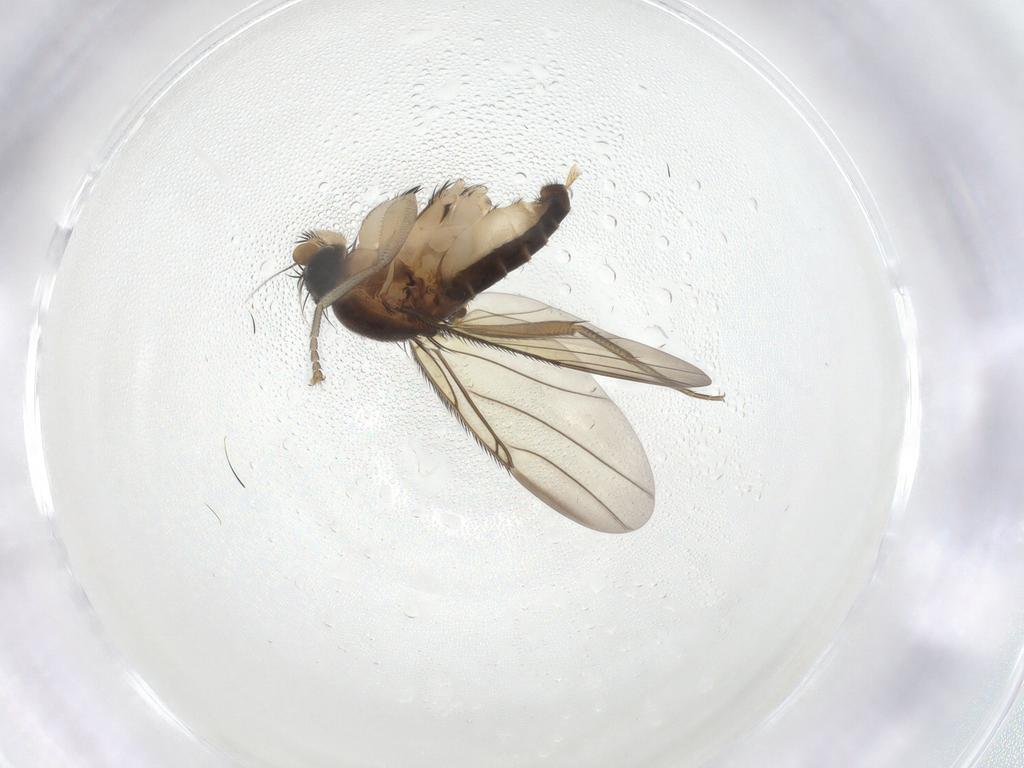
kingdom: Animalia
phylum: Arthropoda
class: Insecta
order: Diptera
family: Phoridae
